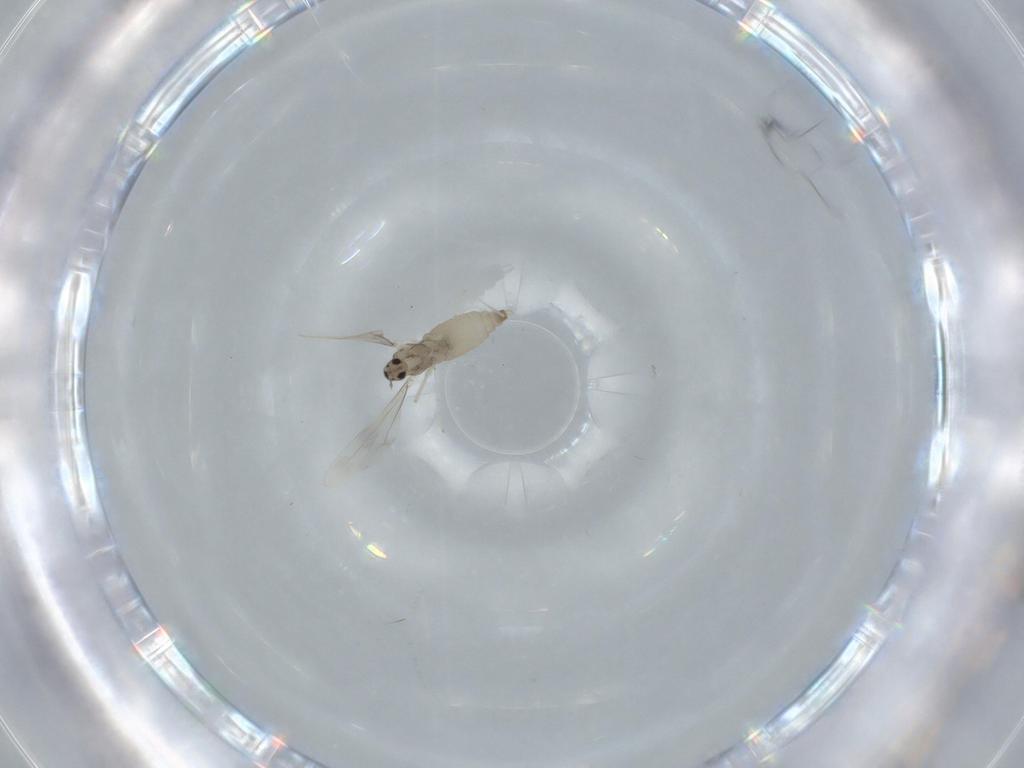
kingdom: Animalia
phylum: Arthropoda
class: Insecta
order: Diptera
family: Cecidomyiidae
